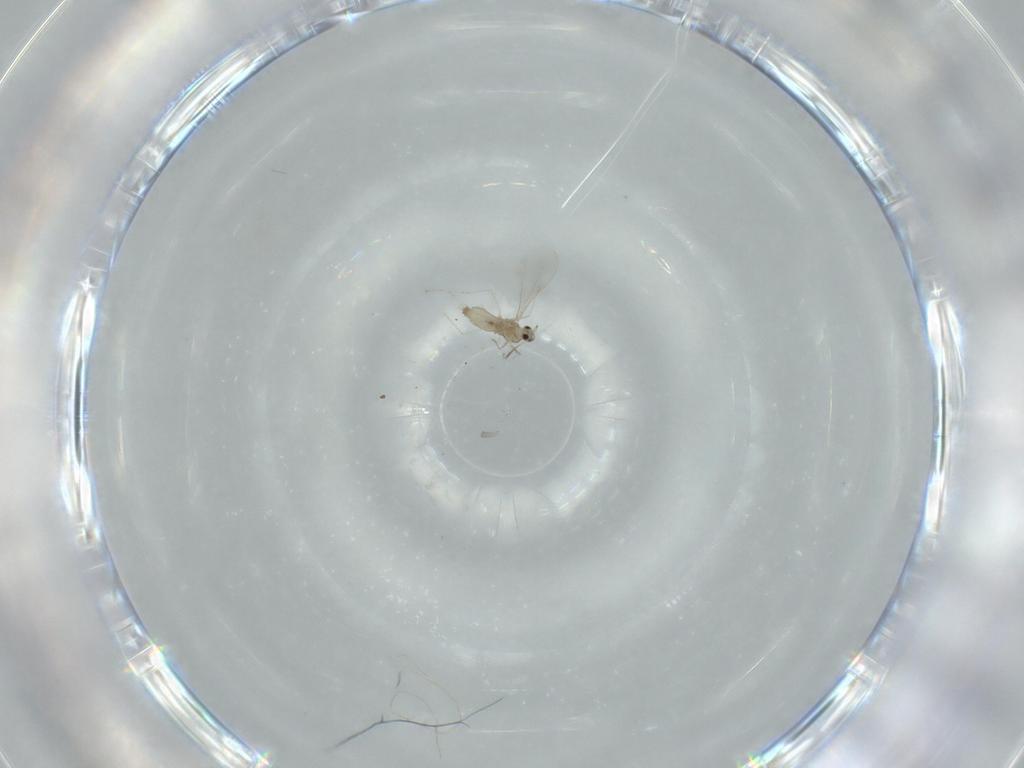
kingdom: Animalia
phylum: Arthropoda
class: Insecta
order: Diptera
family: Cecidomyiidae
